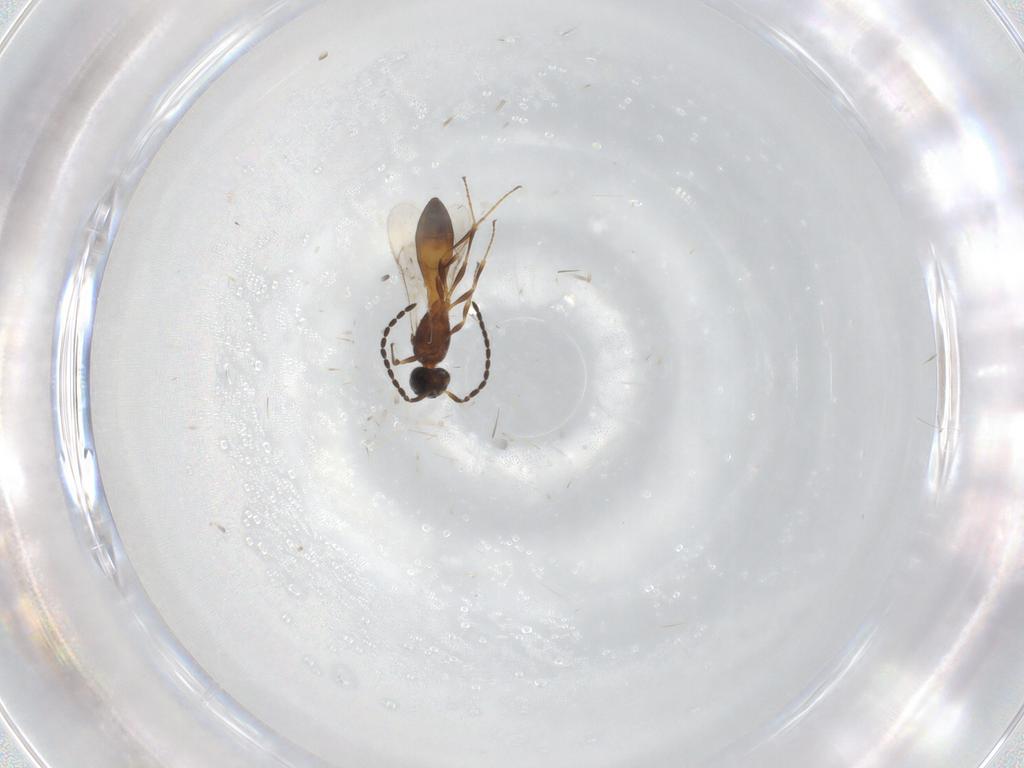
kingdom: Animalia
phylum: Arthropoda
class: Insecta
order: Hymenoptera
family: Scelionidae
